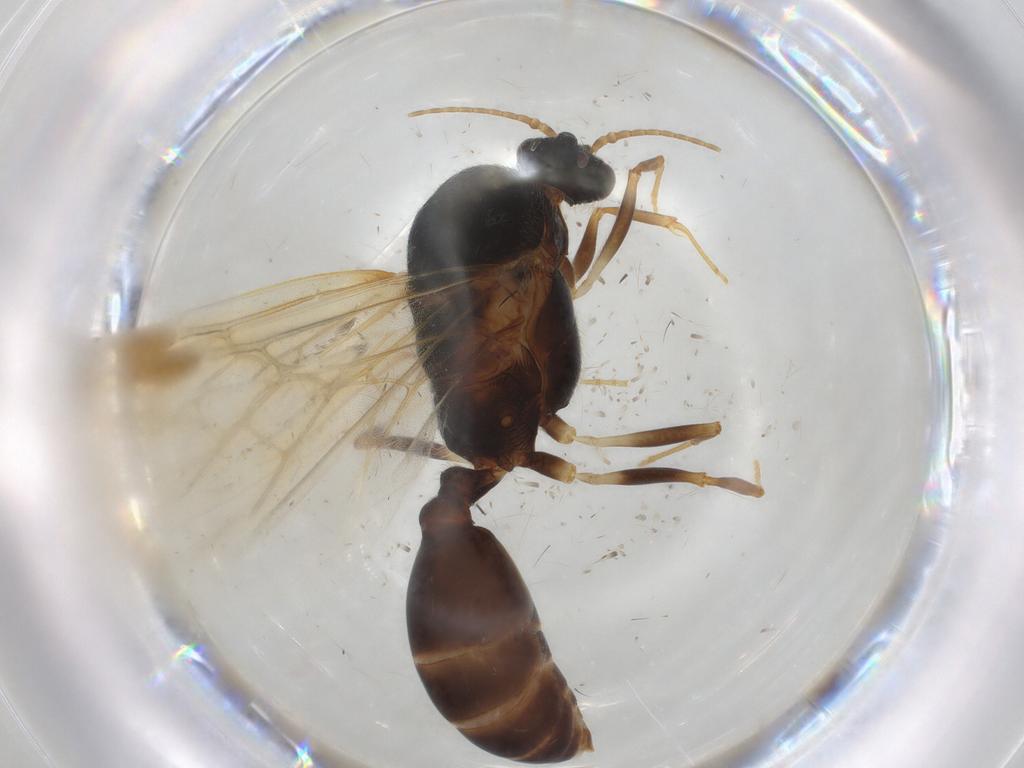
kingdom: Animalia
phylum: Arthropoda
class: Insecta
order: Hymenoptera
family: Formicidae
